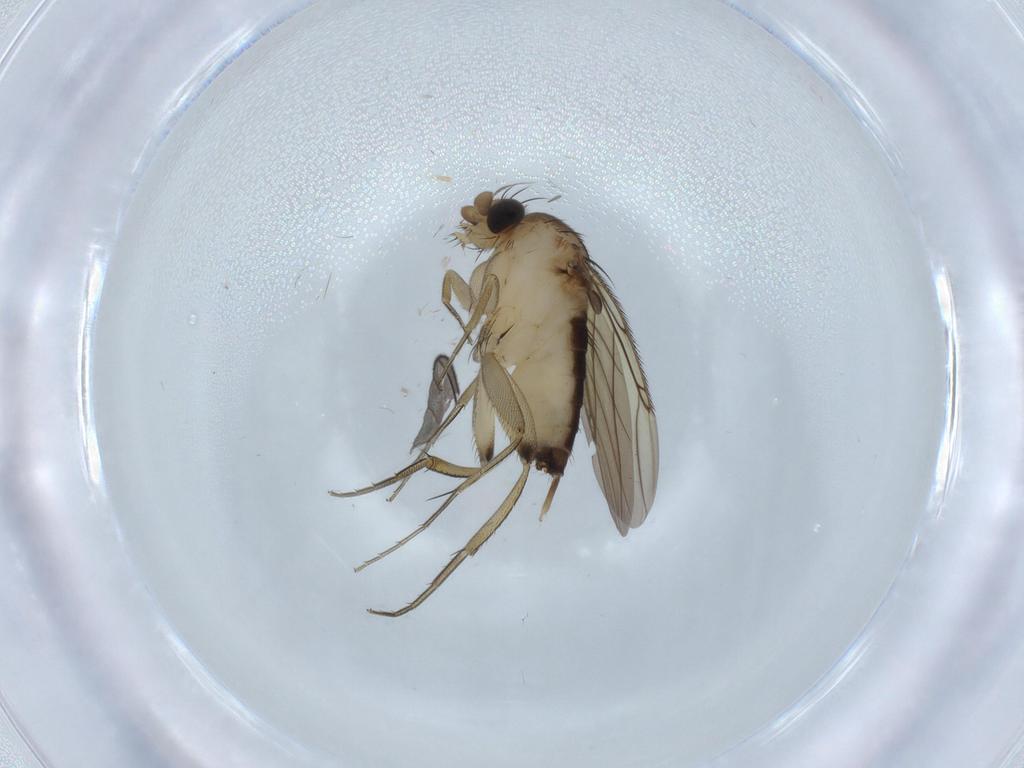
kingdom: Animalia
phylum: Arthropoda
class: Insecta
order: Diptera
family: Phoridae
